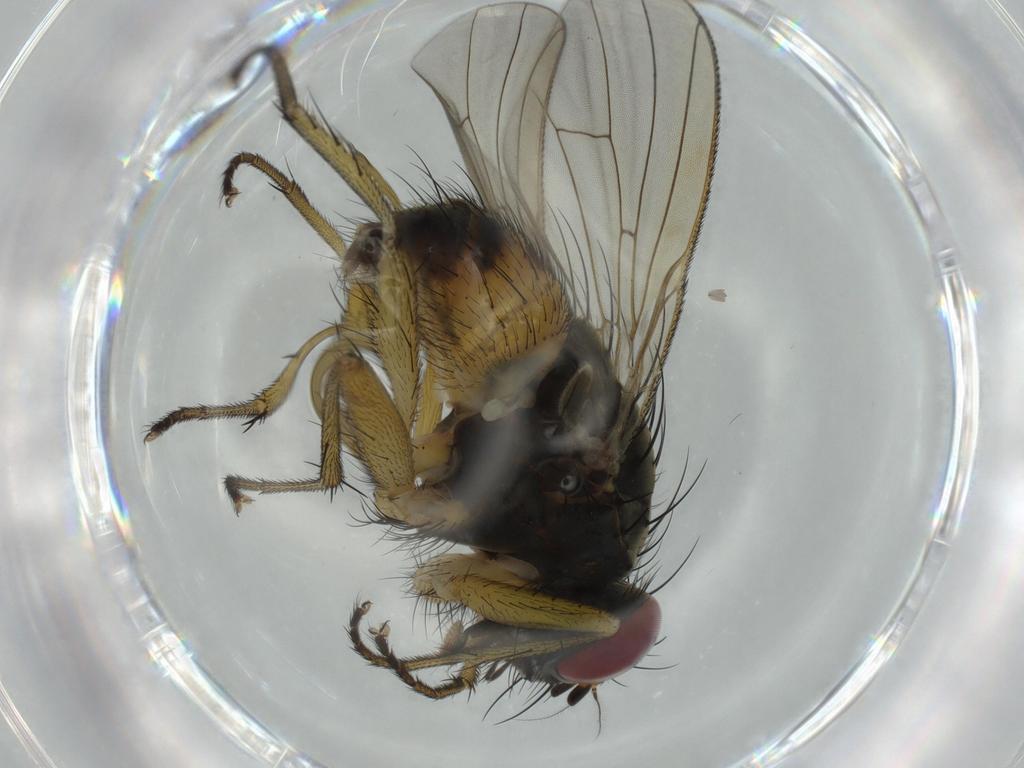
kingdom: Animalia
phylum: Arthropoda
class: Insecta
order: Diptera
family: Muscidae
